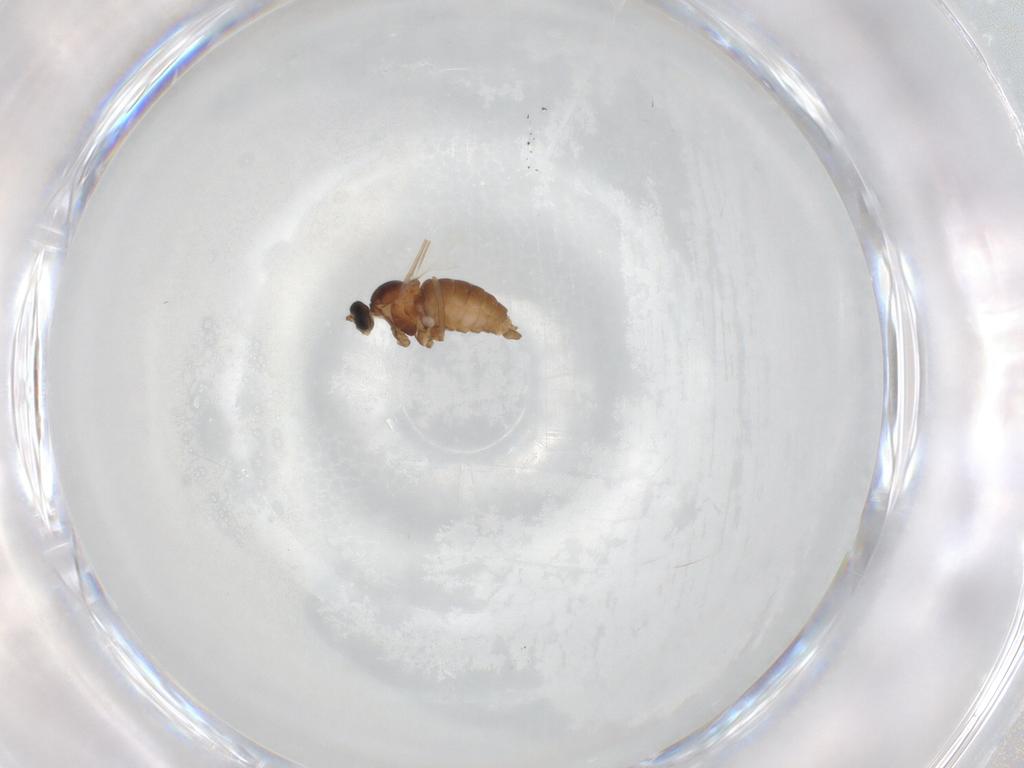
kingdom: Animalia
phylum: Arthropoda
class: Insecta
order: Diptera
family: Cecidomyiidae
